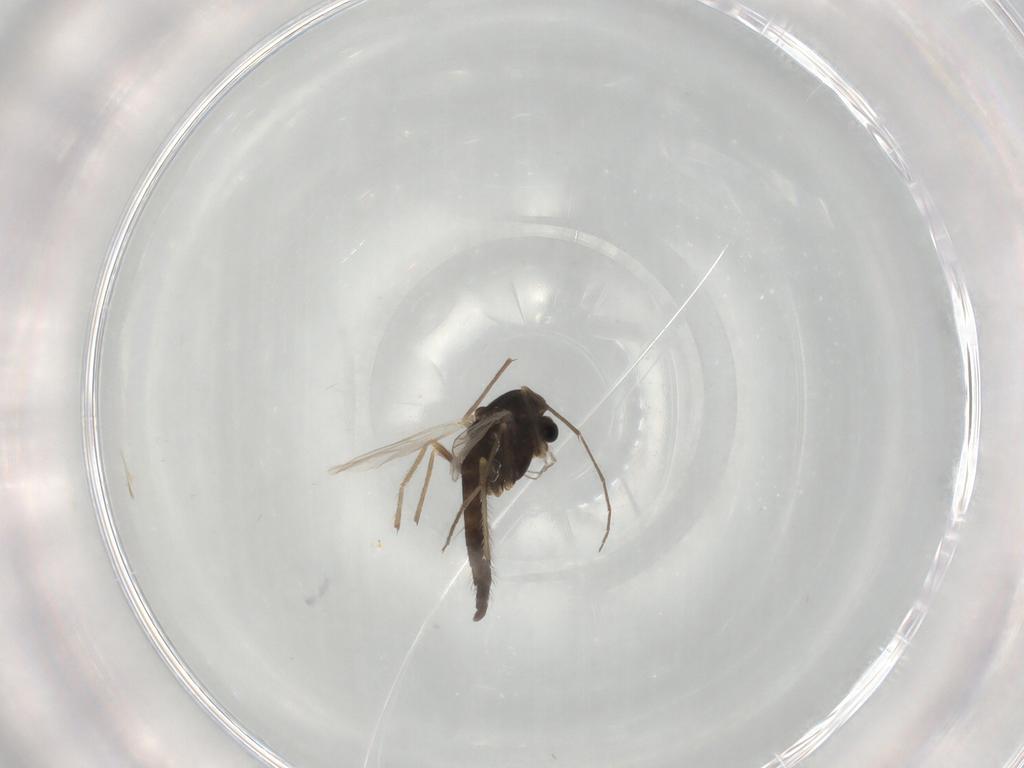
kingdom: Animalia
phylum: Arthropoda
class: Insecta
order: Diptera
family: Chironomidae
